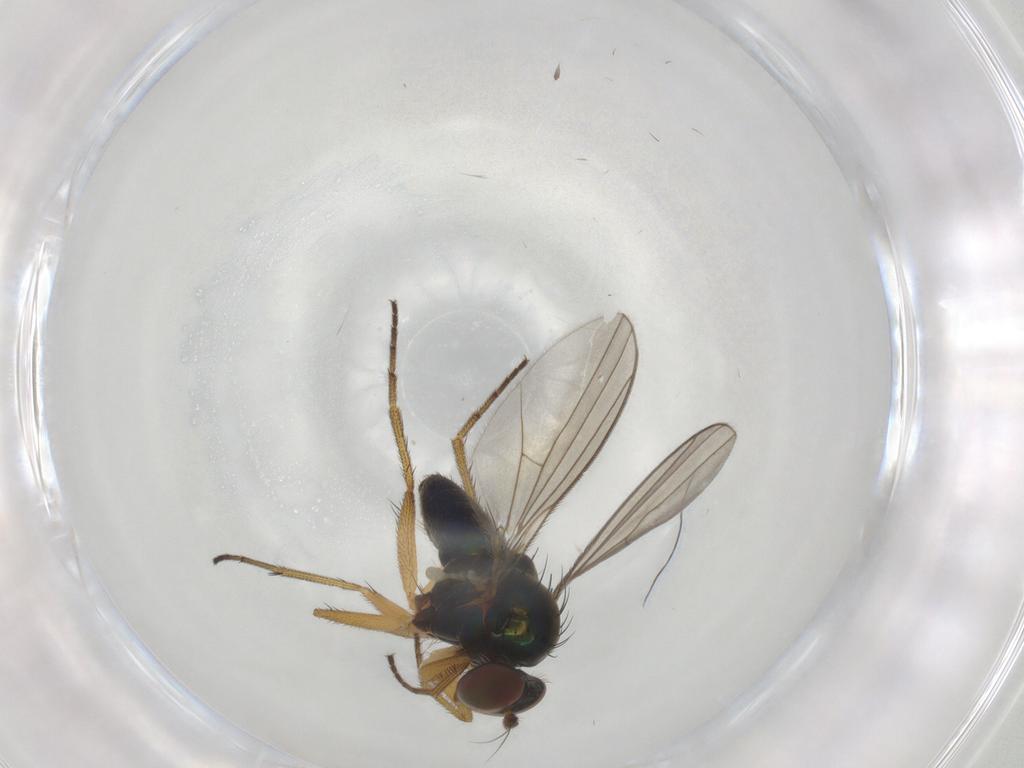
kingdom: Animalia
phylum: Arthropoda
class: Insecta
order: Diptera
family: Dolichopodidae
